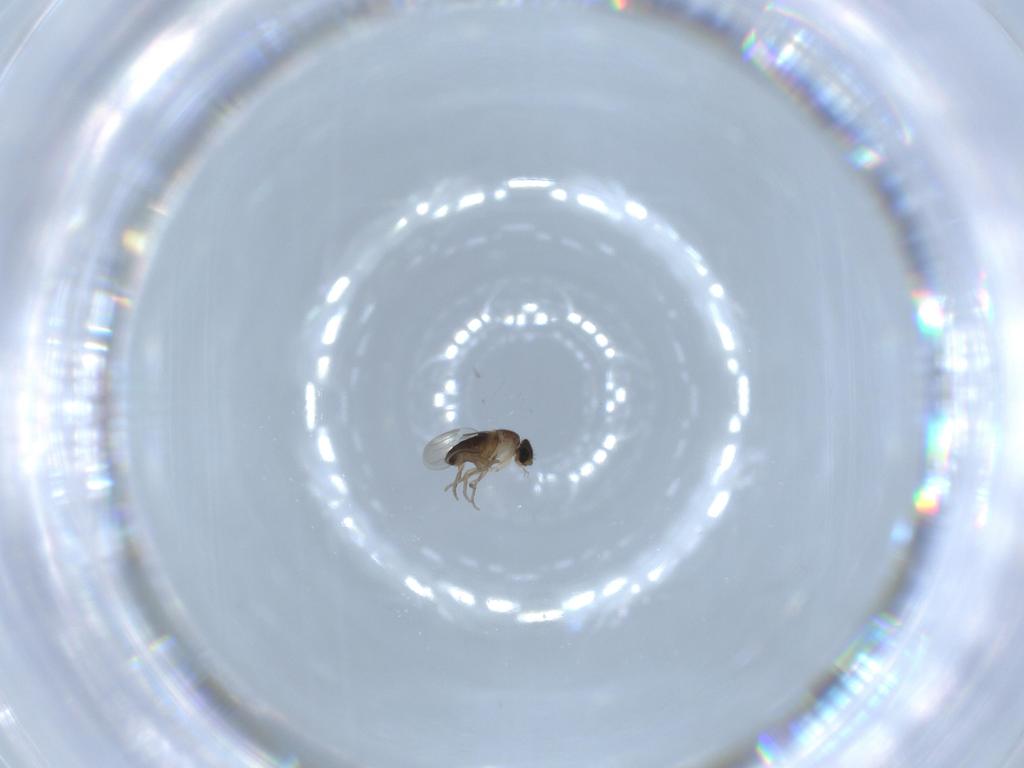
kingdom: Animalia
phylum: Arthropoda
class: Insecta
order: Diptera
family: Phoridae
